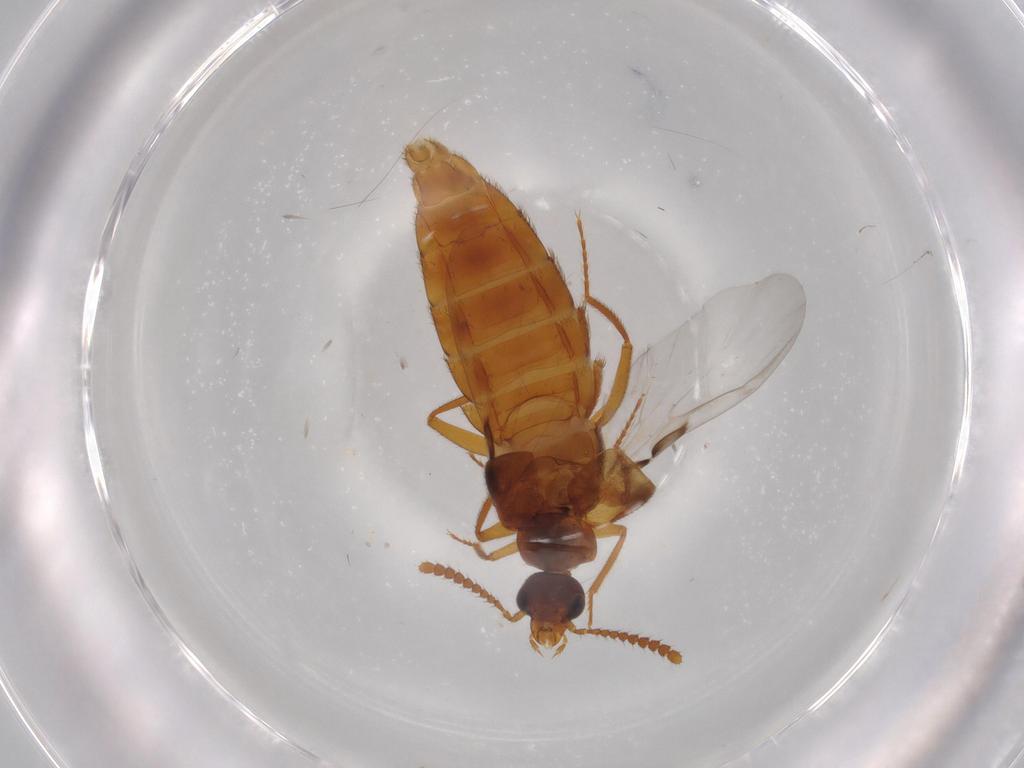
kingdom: Animalia
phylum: Arthropoda
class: Insecta
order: Coleoptera
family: Staphylinidae
